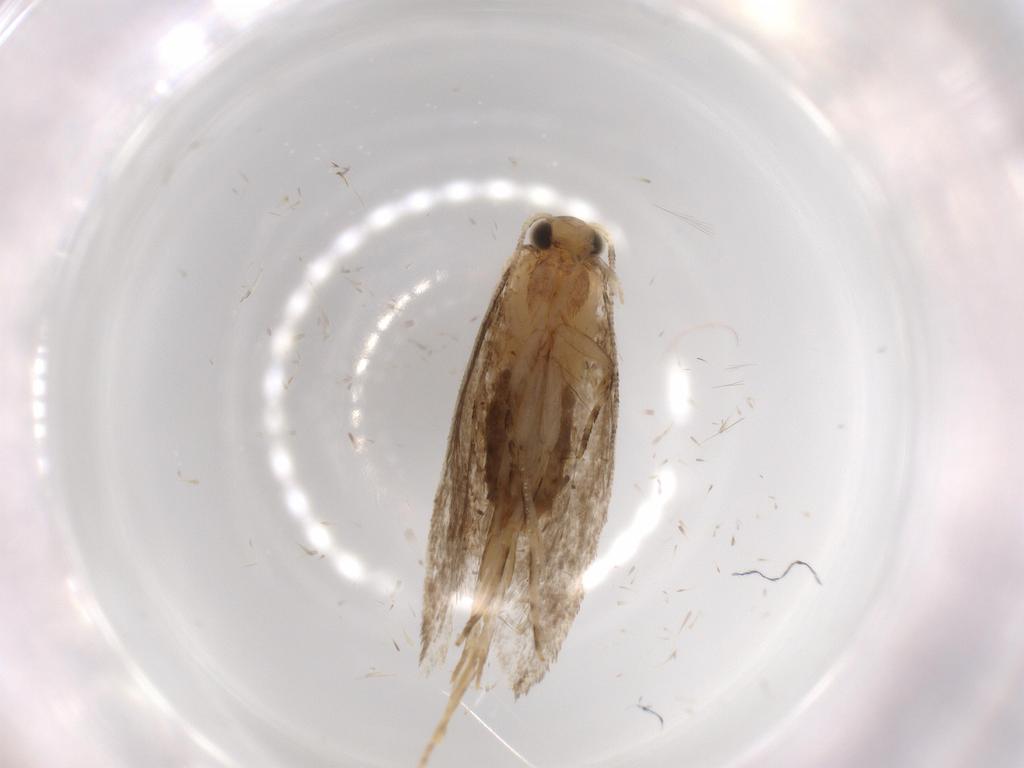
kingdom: Animalia
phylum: Arthropoda
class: Insecta
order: Lepidoptera
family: Tineidae
